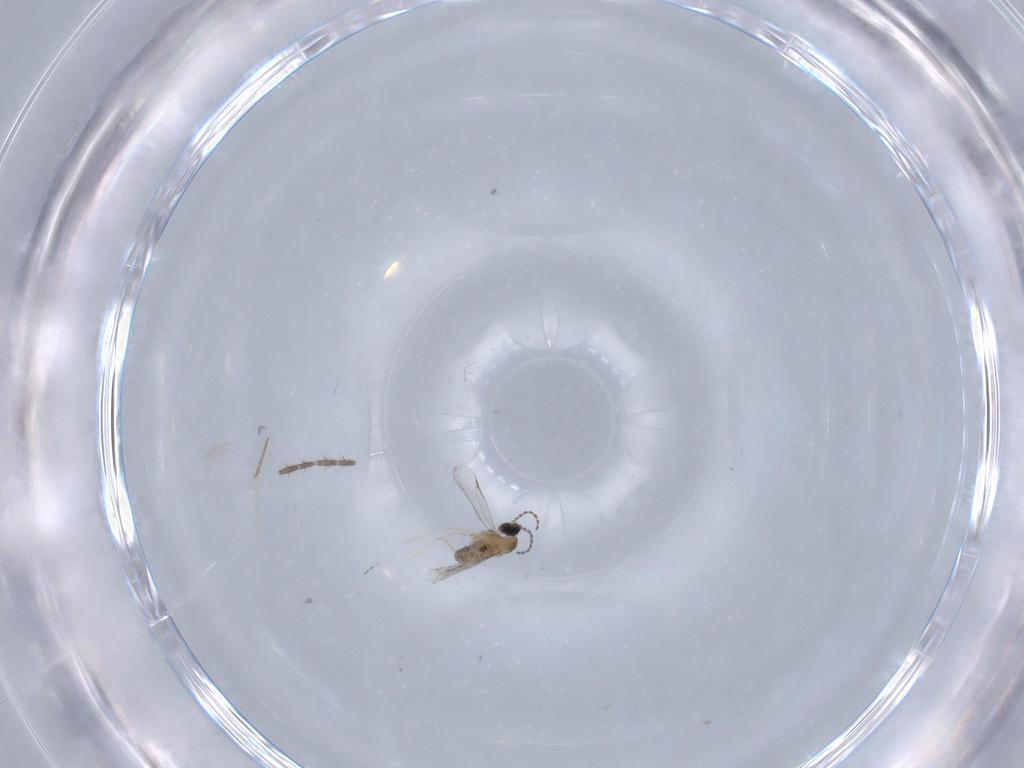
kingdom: Animalia
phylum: Arthropoda
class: Insecta
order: Diptera
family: Cecidomyiidae
